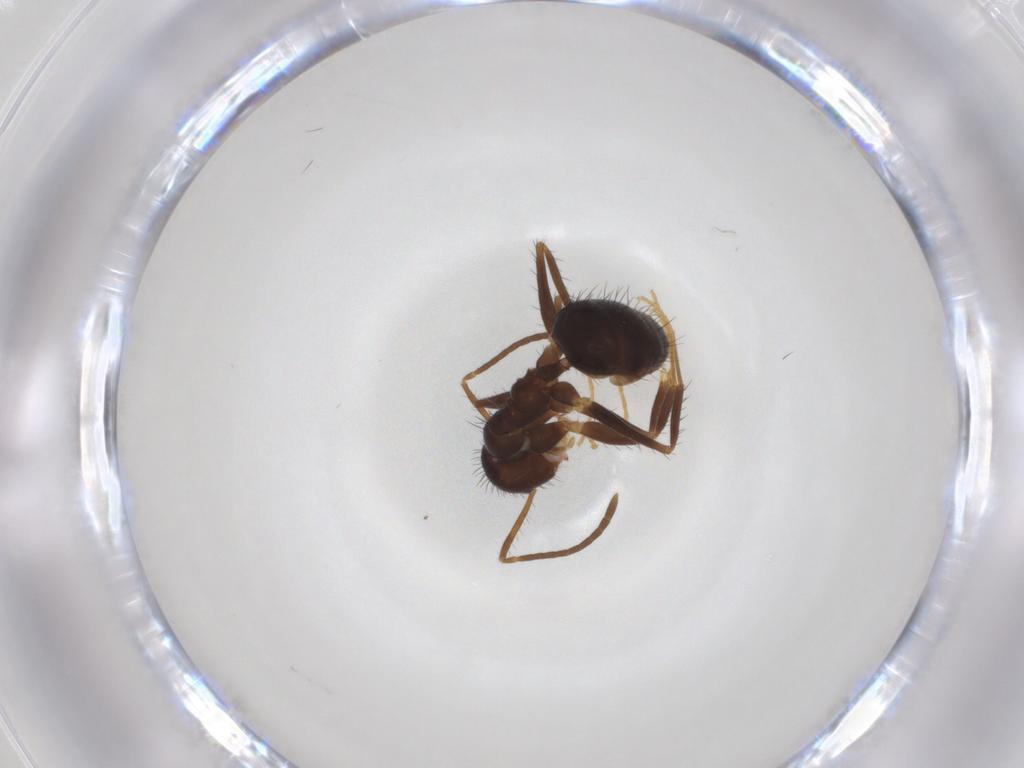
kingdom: Animalia
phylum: Arthropoda
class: Insecta
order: Hymenoptera
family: Formicidae
